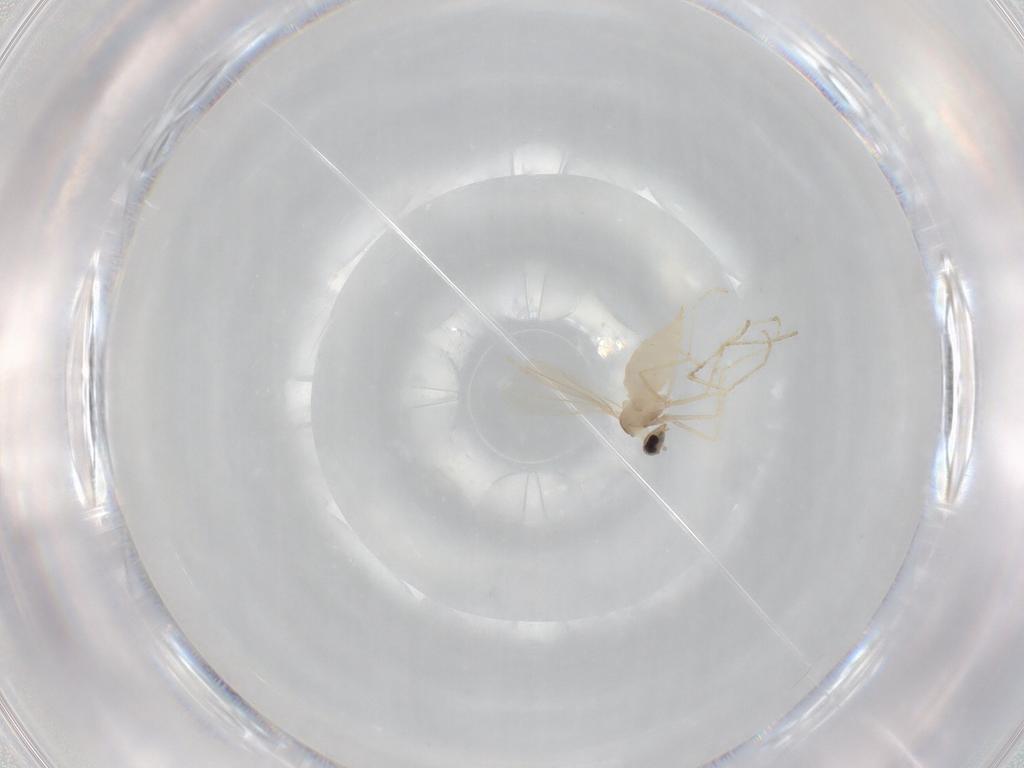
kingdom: Animalia
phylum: Arthropoda
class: Insecta
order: Diptera
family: Cecidomyiidae
